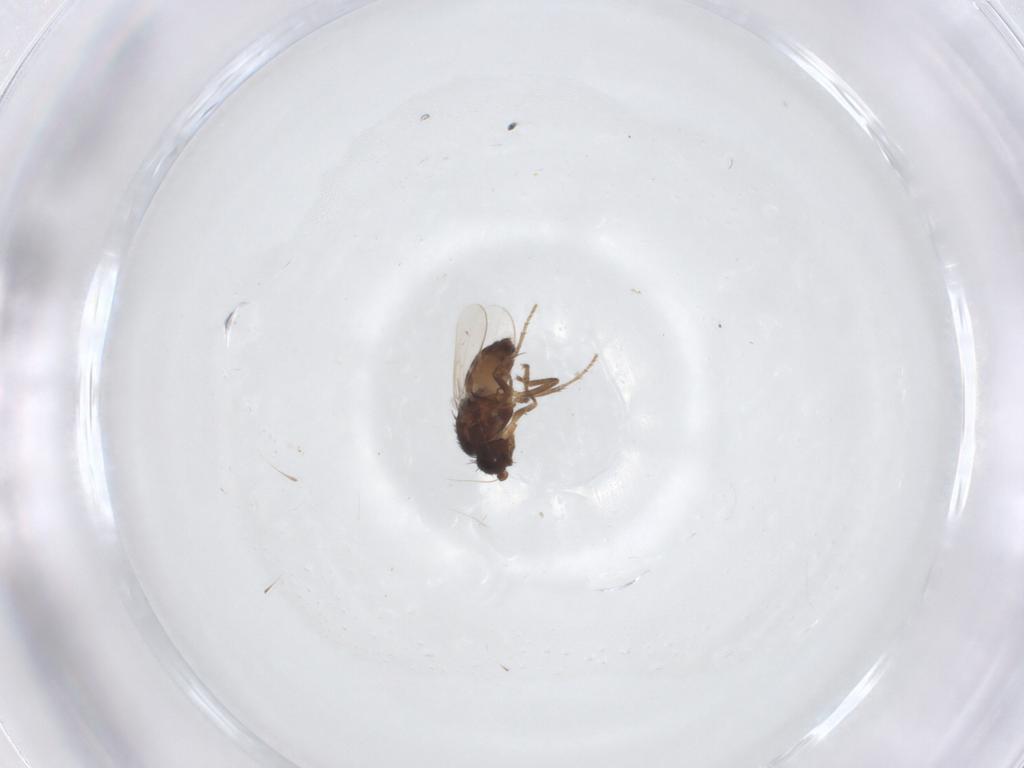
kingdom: Animalia
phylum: Arthropoda
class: Insecta
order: Diptera
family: Sphaeroceridae
